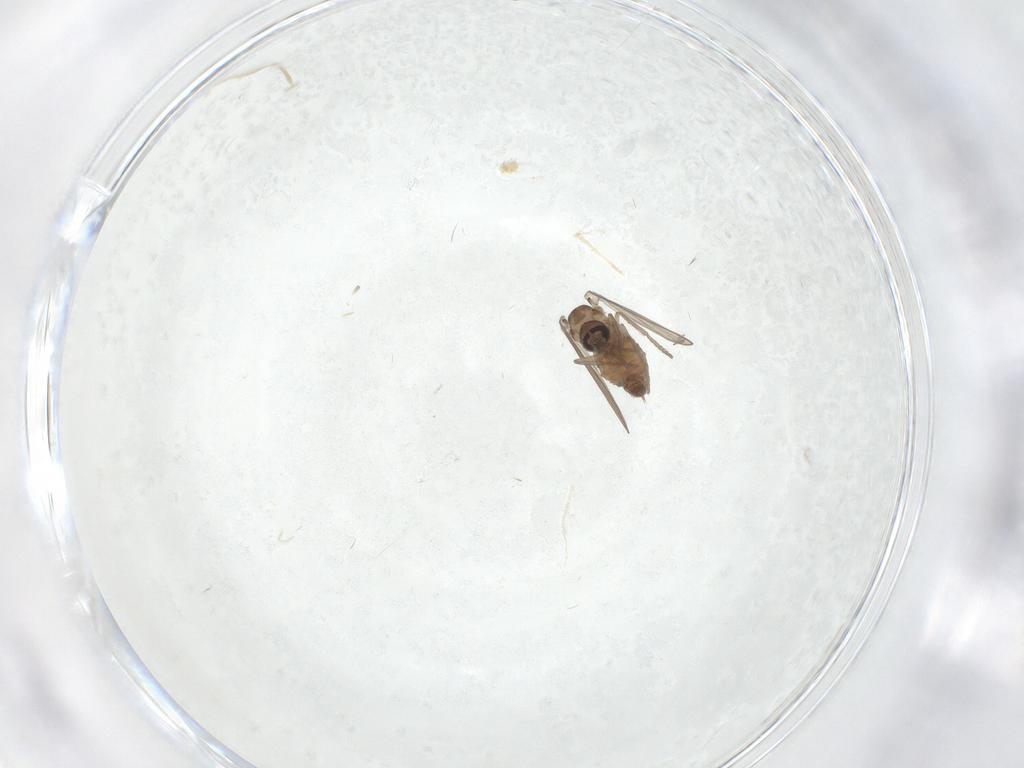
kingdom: Animalia
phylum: Arthropoda
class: Insecta
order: Diptera
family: Psychodidae
